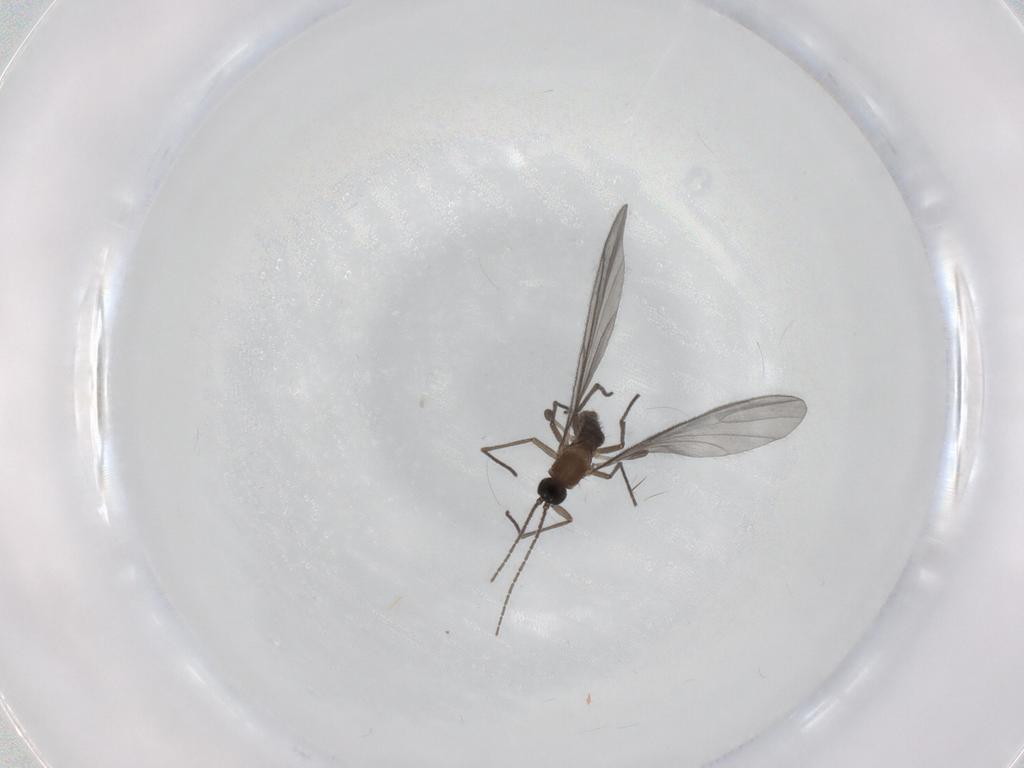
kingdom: Animalia
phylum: Arthropoda
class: Insecta
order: Diptera
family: Sciaridae
